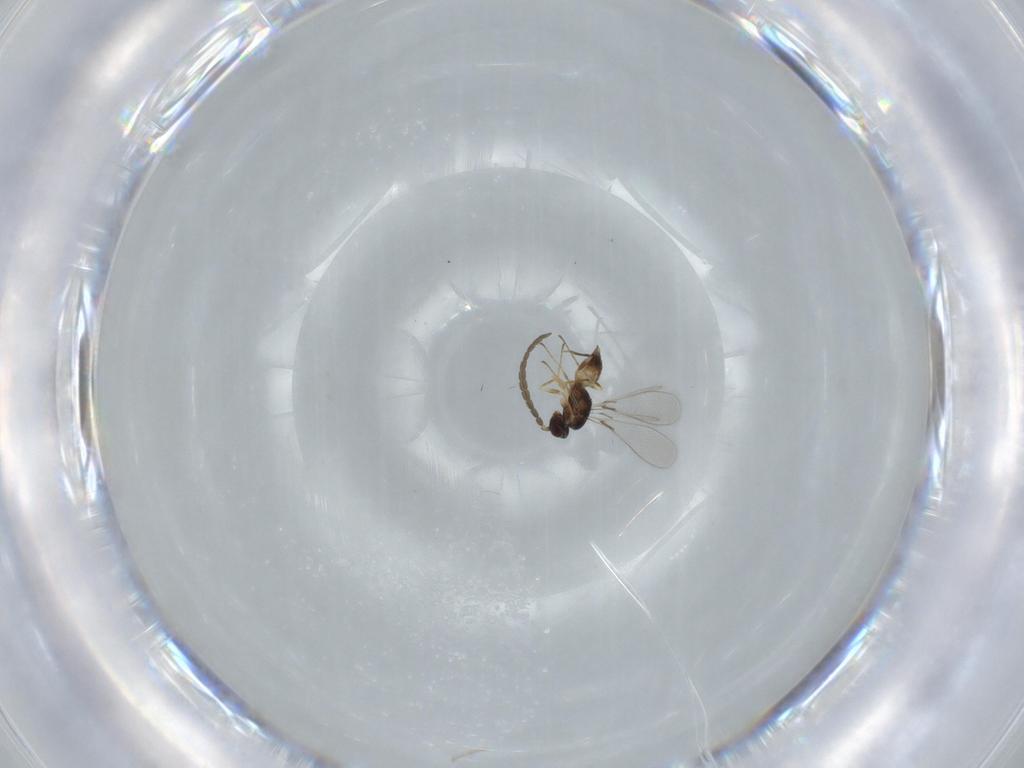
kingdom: Animalia
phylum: Arthropoda
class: Insecta
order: Hymenoptera
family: Mymaridae
